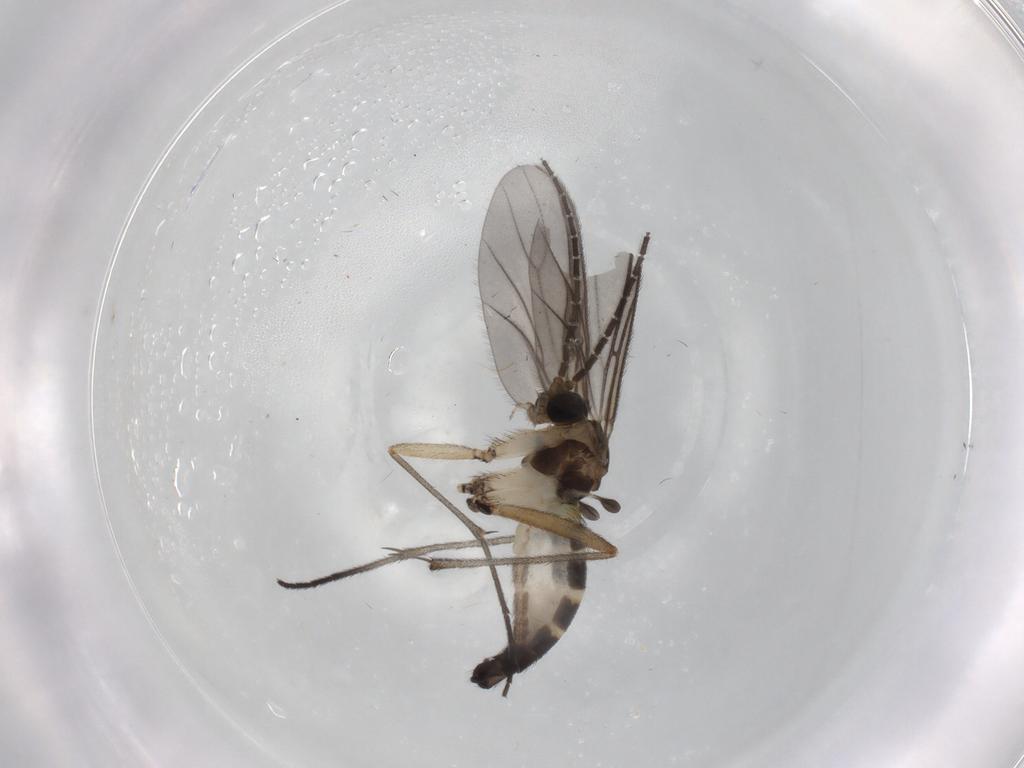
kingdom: Animalia
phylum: Arthropoda
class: Insecta
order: Diptera
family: Sciaridae
